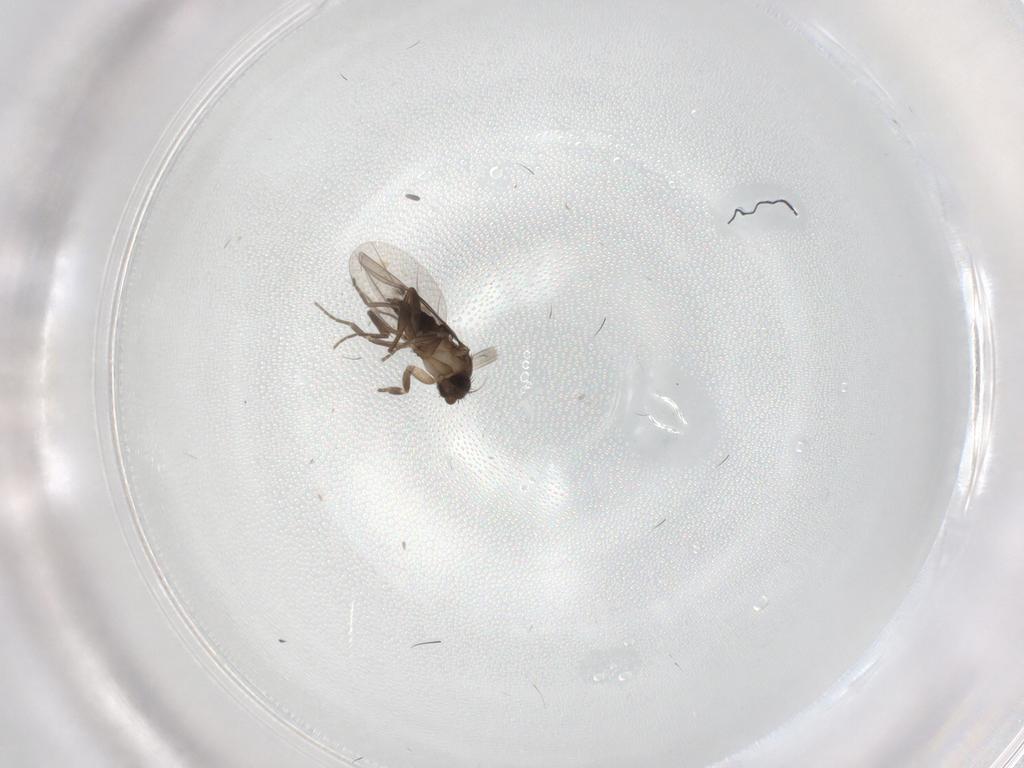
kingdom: Animalia
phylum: Arthropoda
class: Insecta
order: Diptera
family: Phoridae
